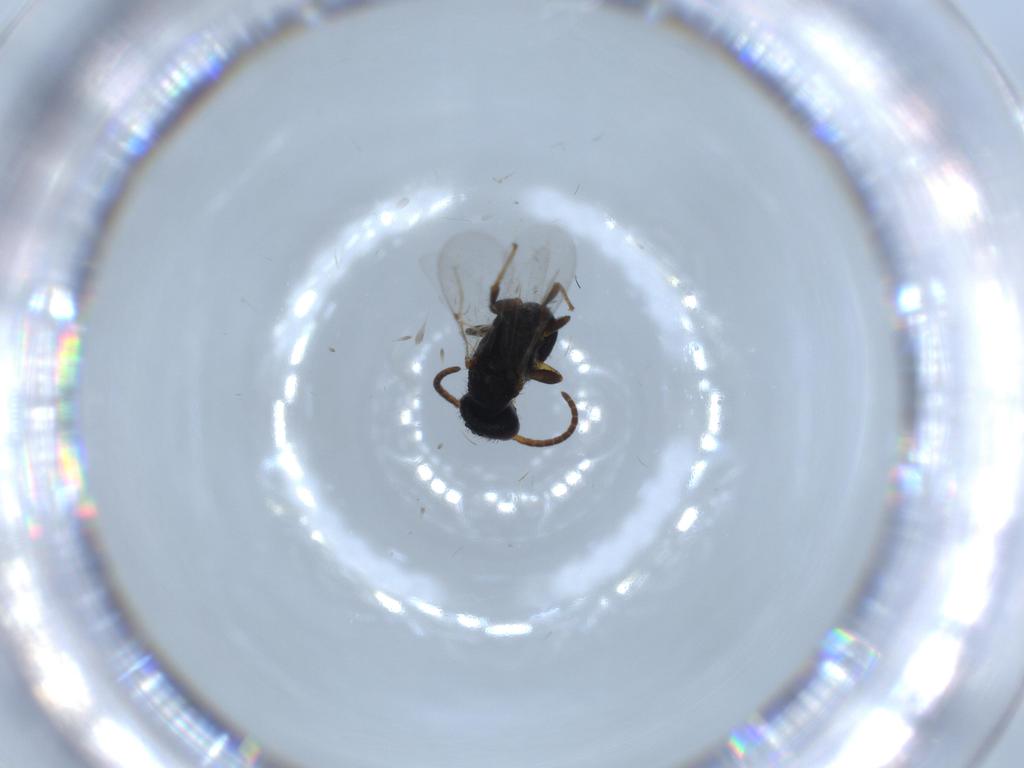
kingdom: Animalia
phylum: Arthropoda
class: Insecta
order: Hymenoptera
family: Bethylidae
